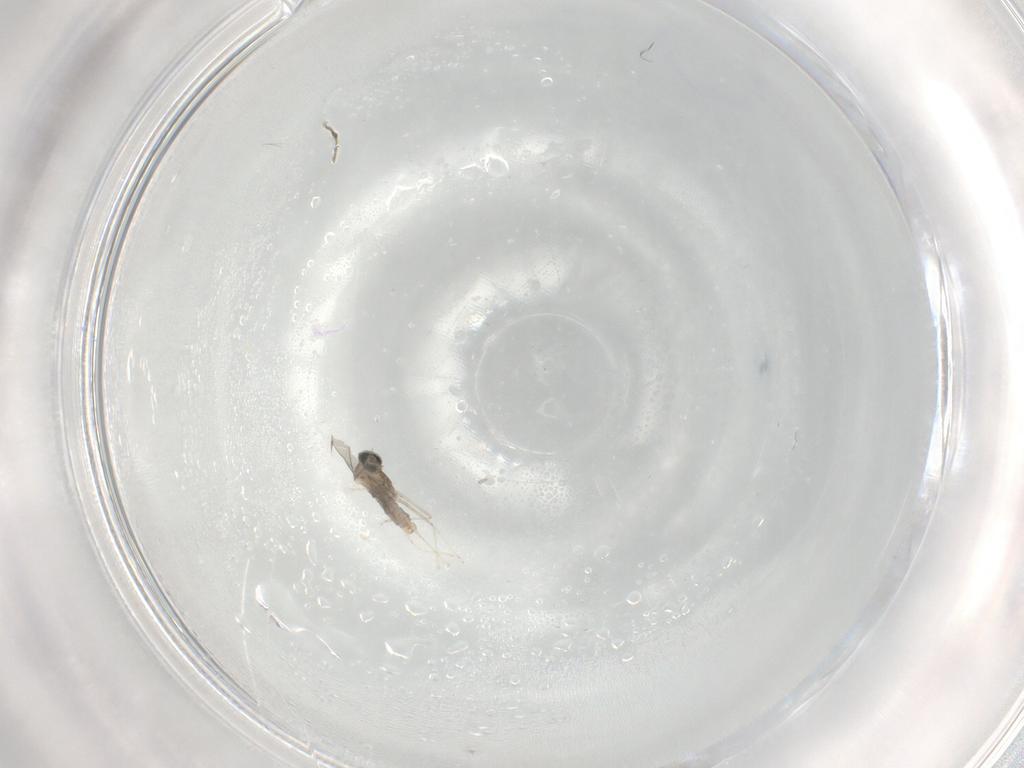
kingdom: Animalia
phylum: Arthropoda
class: Insecta
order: Diptera
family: Cecidomyiidae
